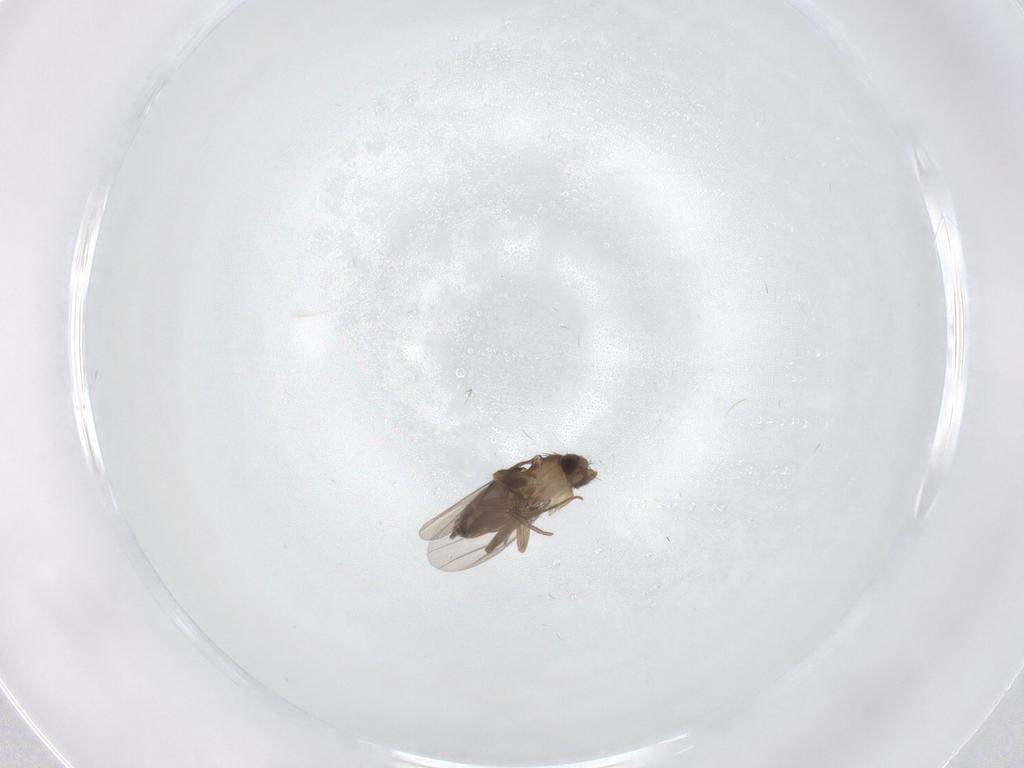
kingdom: Animalia
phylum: Arthropoda
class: Insecta
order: Diptera
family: Phoridae
